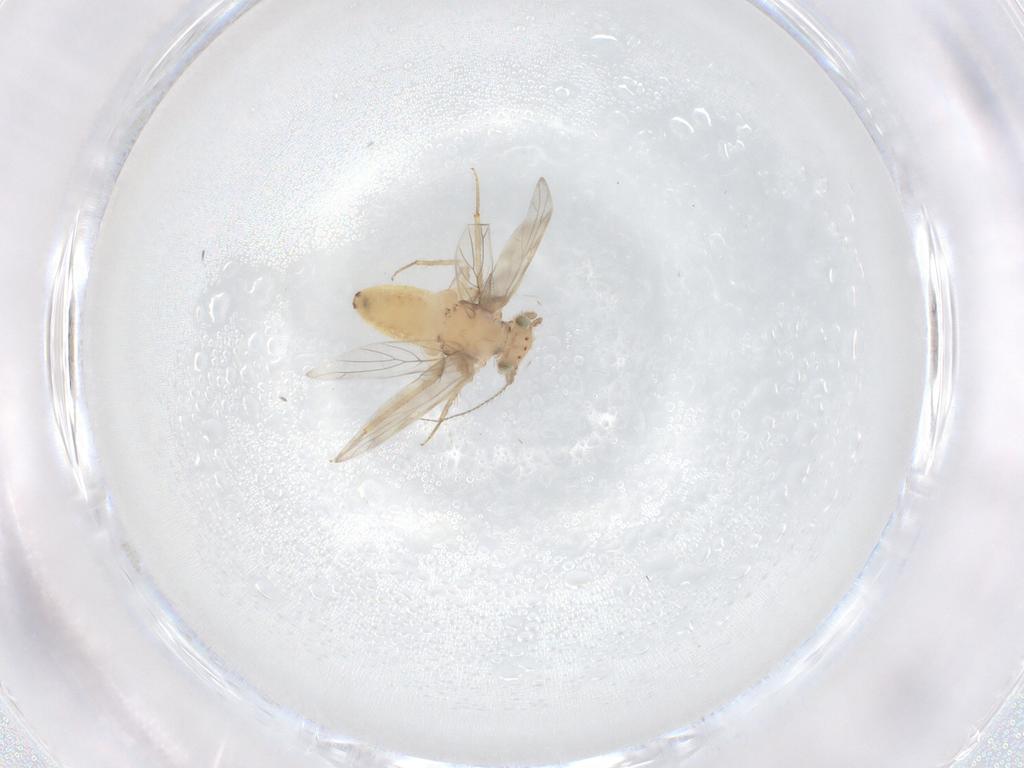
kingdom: Animalia
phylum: Arthropoda
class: Insecta
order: Psocodea
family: Lepidopsocidae
